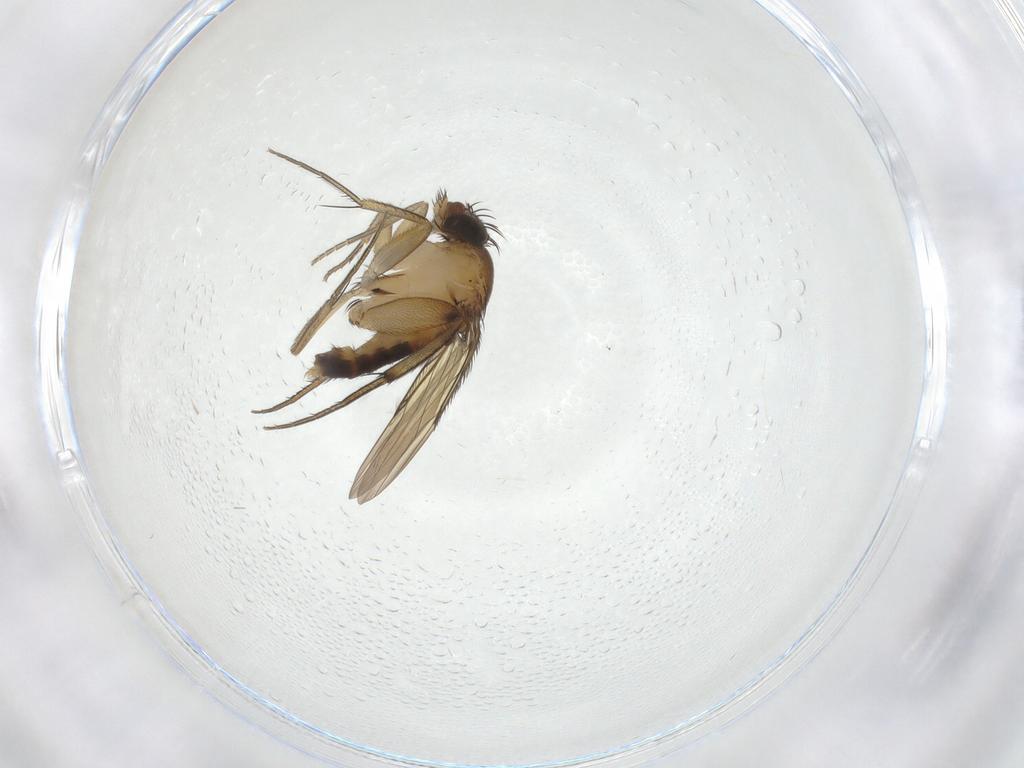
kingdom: Animalia
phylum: Arthropoda
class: Insecta
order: Diptera
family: Phoridae
